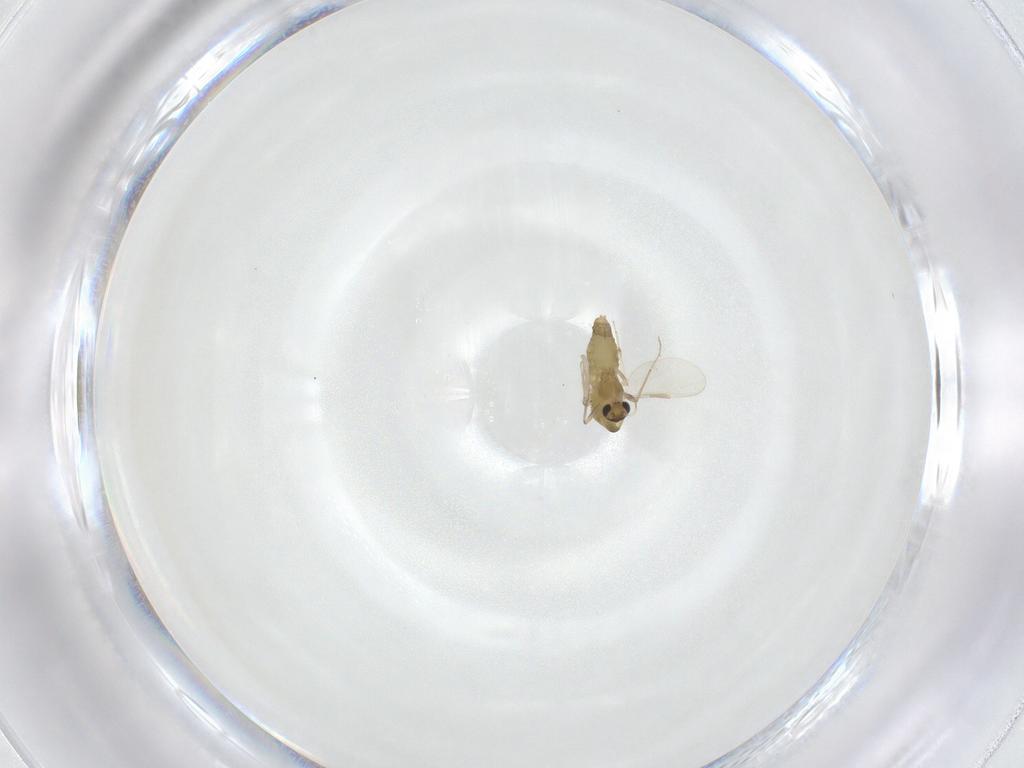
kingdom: Animalia
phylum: Arthropoda
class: Insecta
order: Diptera
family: Chironomidae
